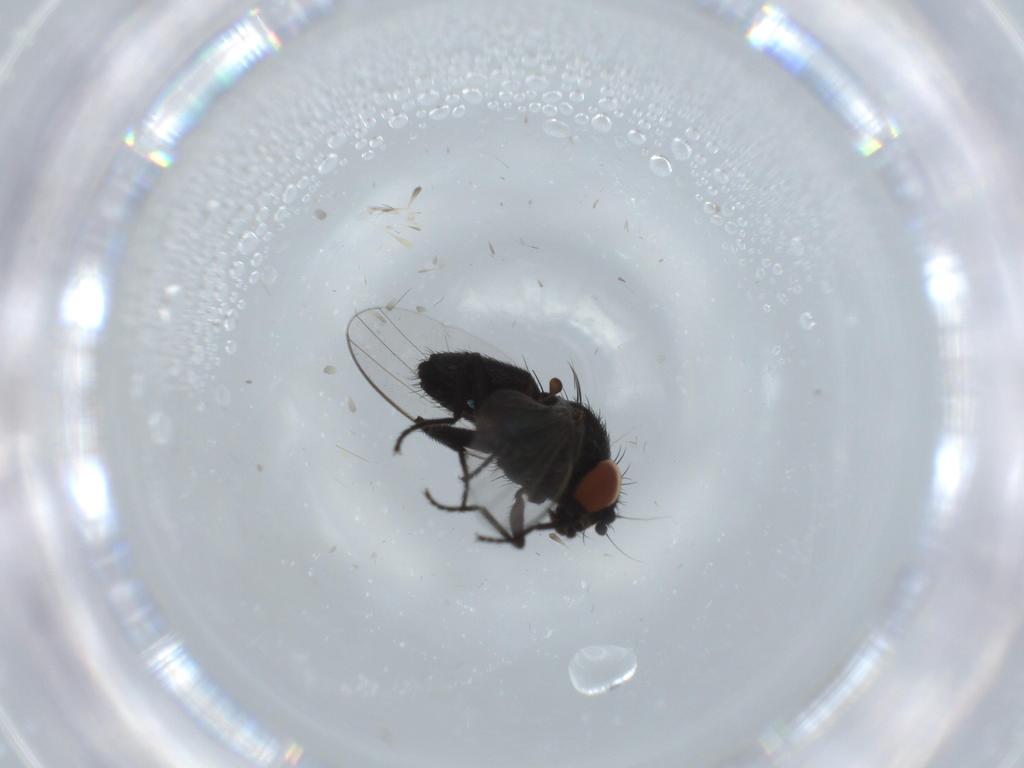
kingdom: Animalia
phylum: Arthropoda
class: Insecta
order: Diptera
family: Milichiidae
